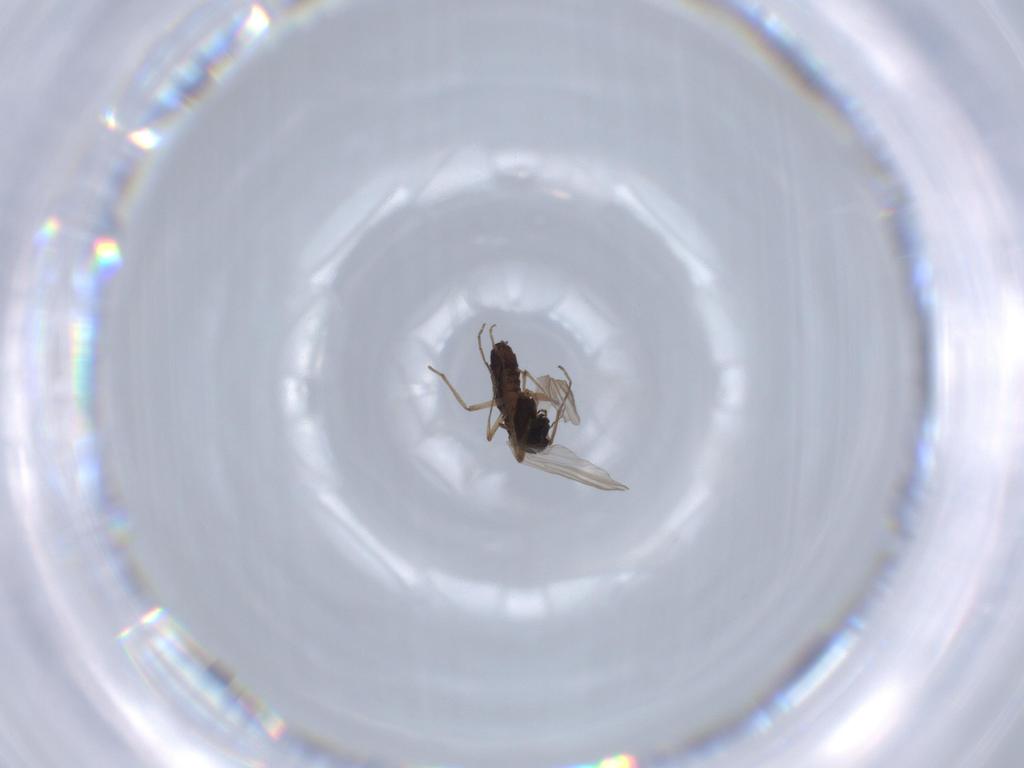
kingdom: Animalia
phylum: Arthropoda
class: Insecta
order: Diptera
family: Chironomidae
